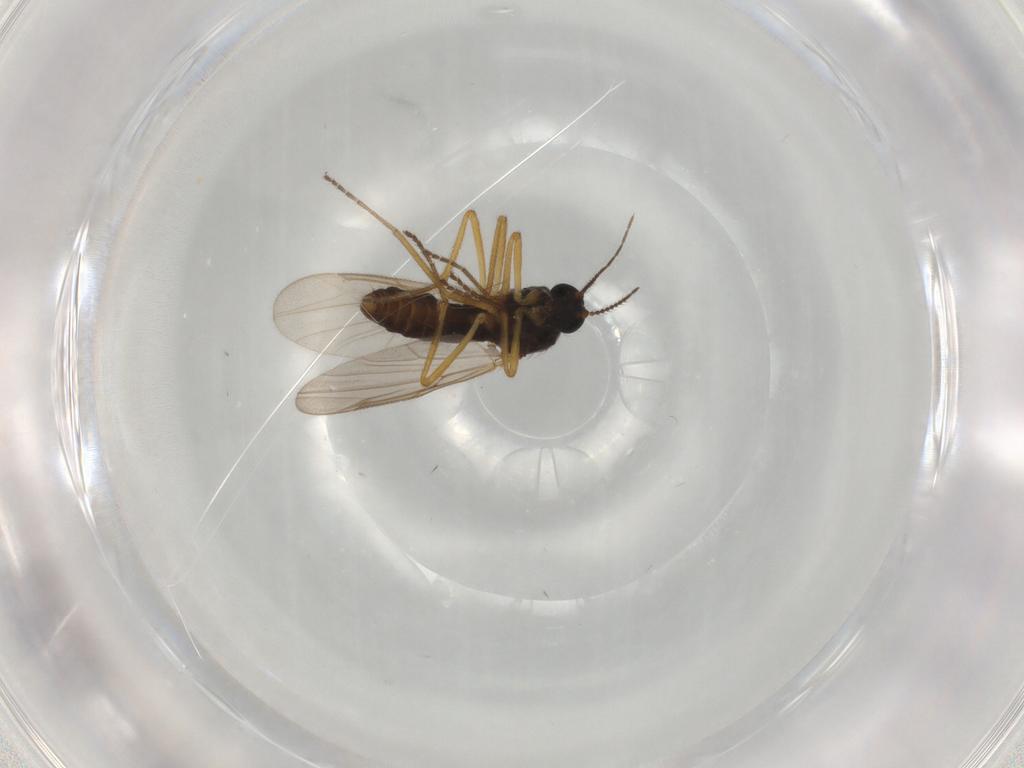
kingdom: Animalia
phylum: Arthropoda
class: Insecta
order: Diptera
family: Ceratopogonidae
